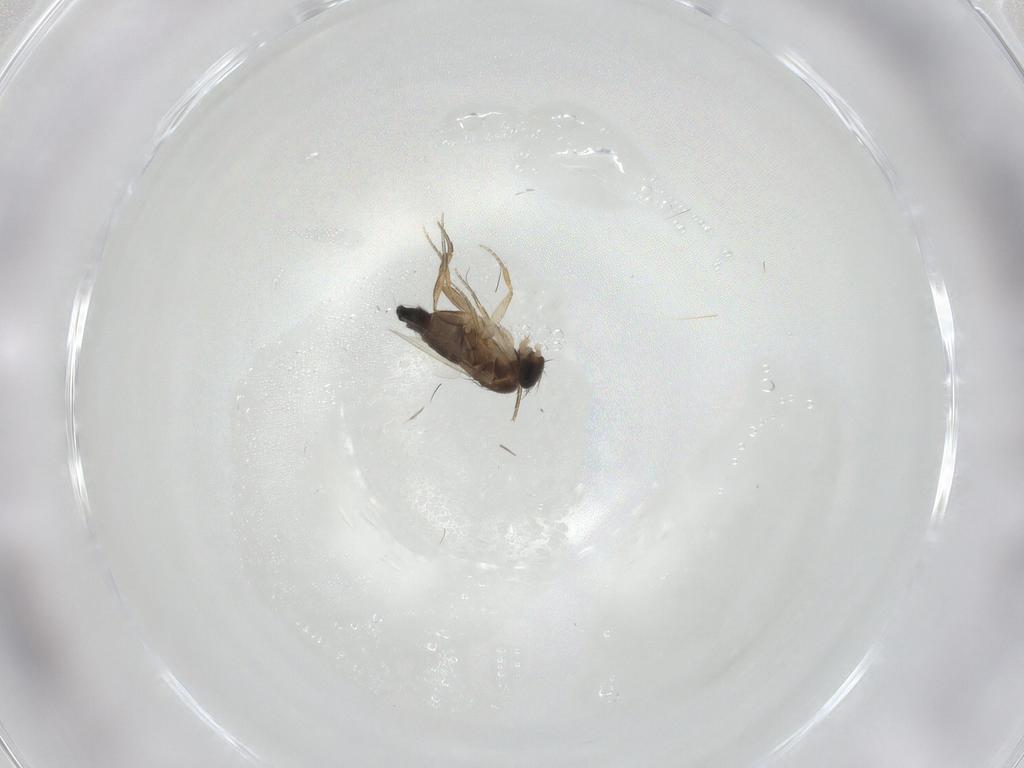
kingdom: Animalia
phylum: Arthropoda
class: Insecta
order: Diptera
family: Phoridae
